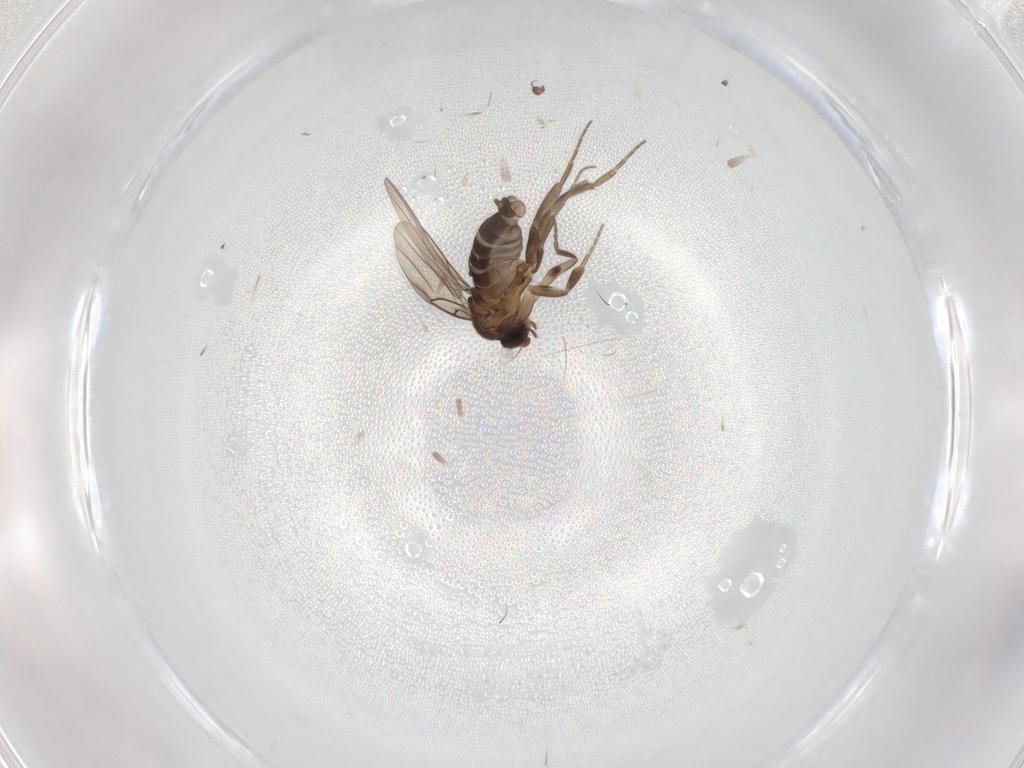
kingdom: Animalia
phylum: Arthropoda
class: Insecta
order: Diptera
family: Phoridae
